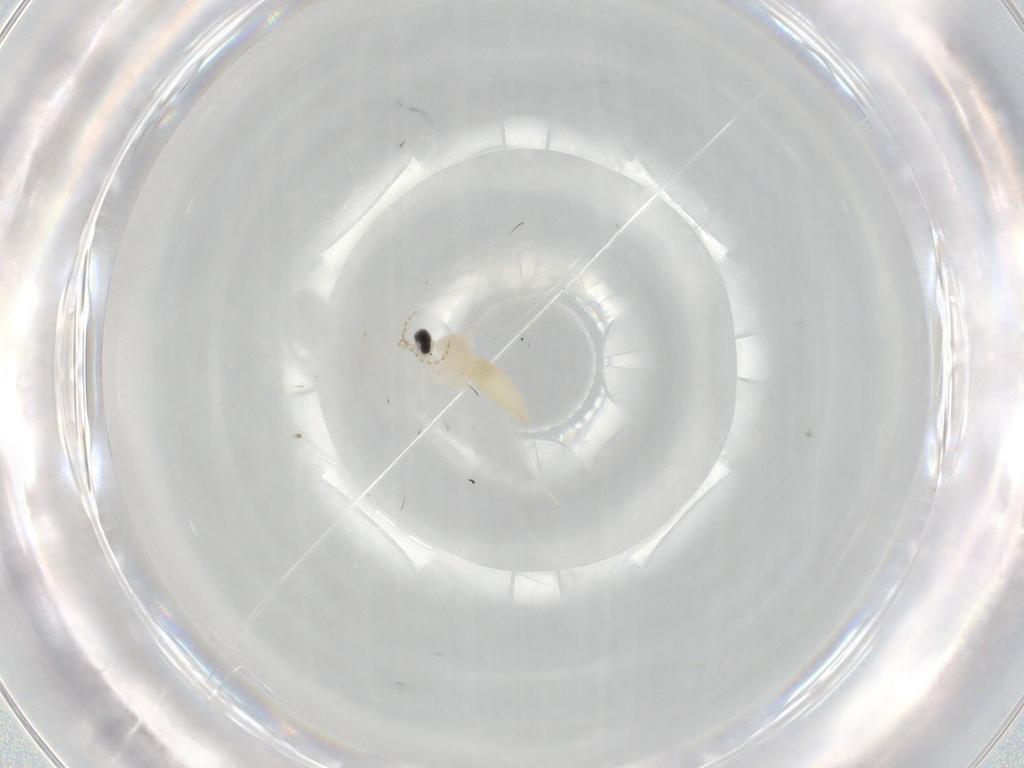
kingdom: Animalia
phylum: Arthropoda
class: Insecta
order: Diptera
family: Cecidomyiidae
